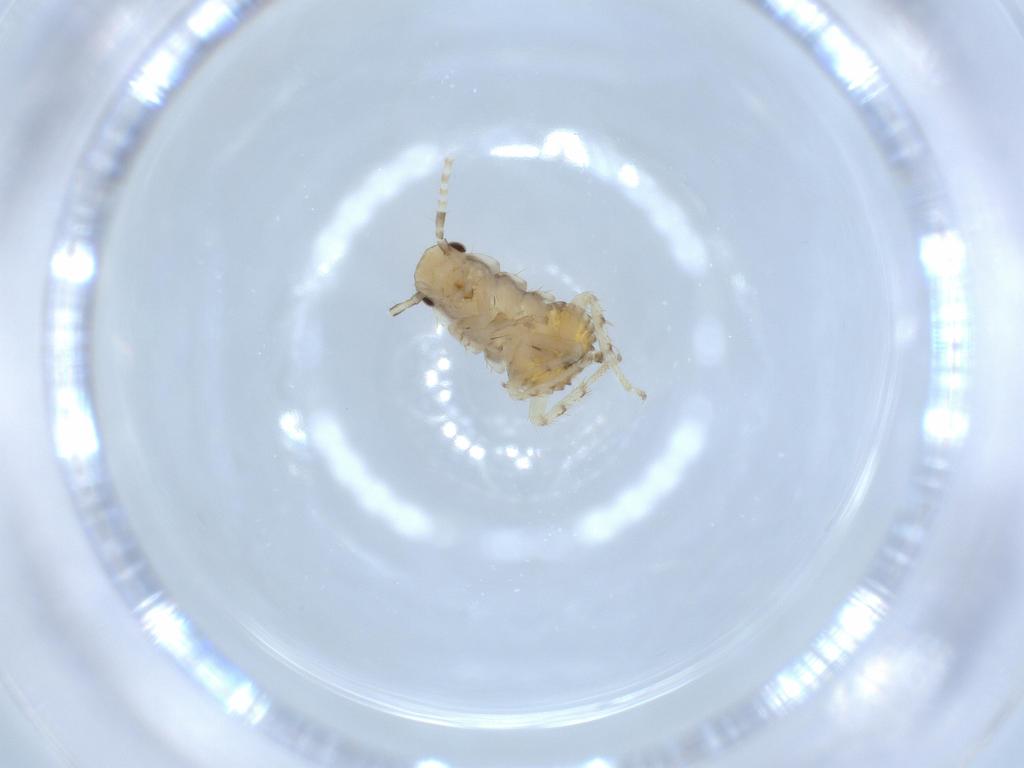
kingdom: Animalia
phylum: Arthropoda
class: Insecta
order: Blattodea
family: Ectobiidae
